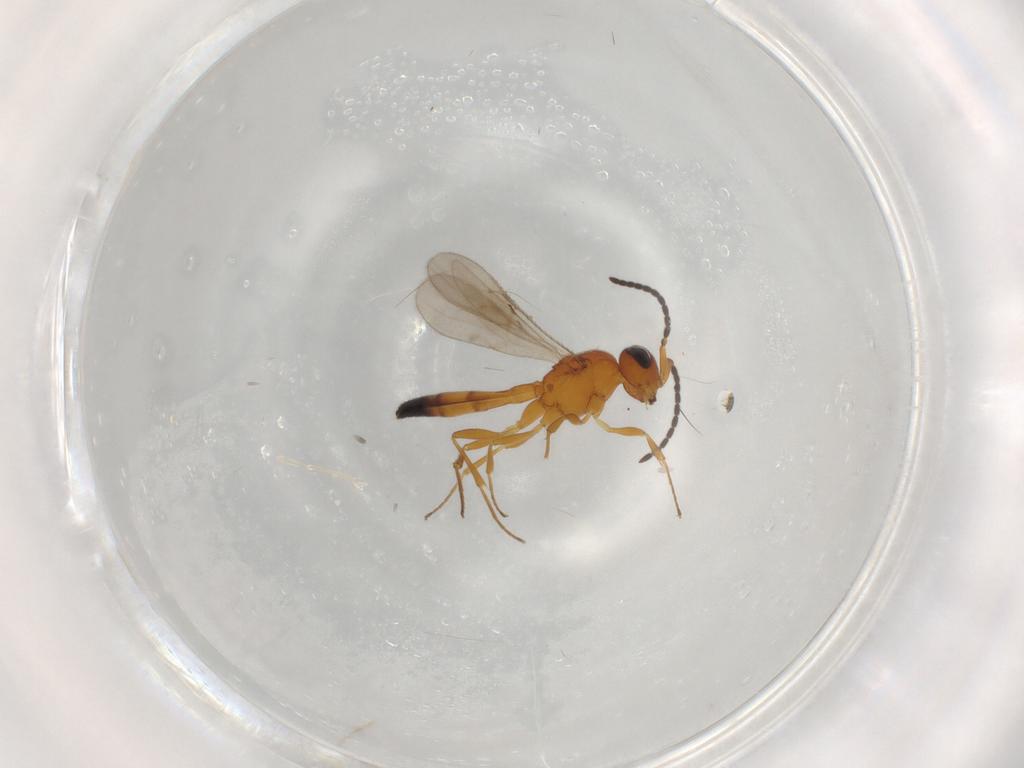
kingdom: Animalia
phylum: Arthropoda
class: Insecta
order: Hymenoptera
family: Scelionidae
